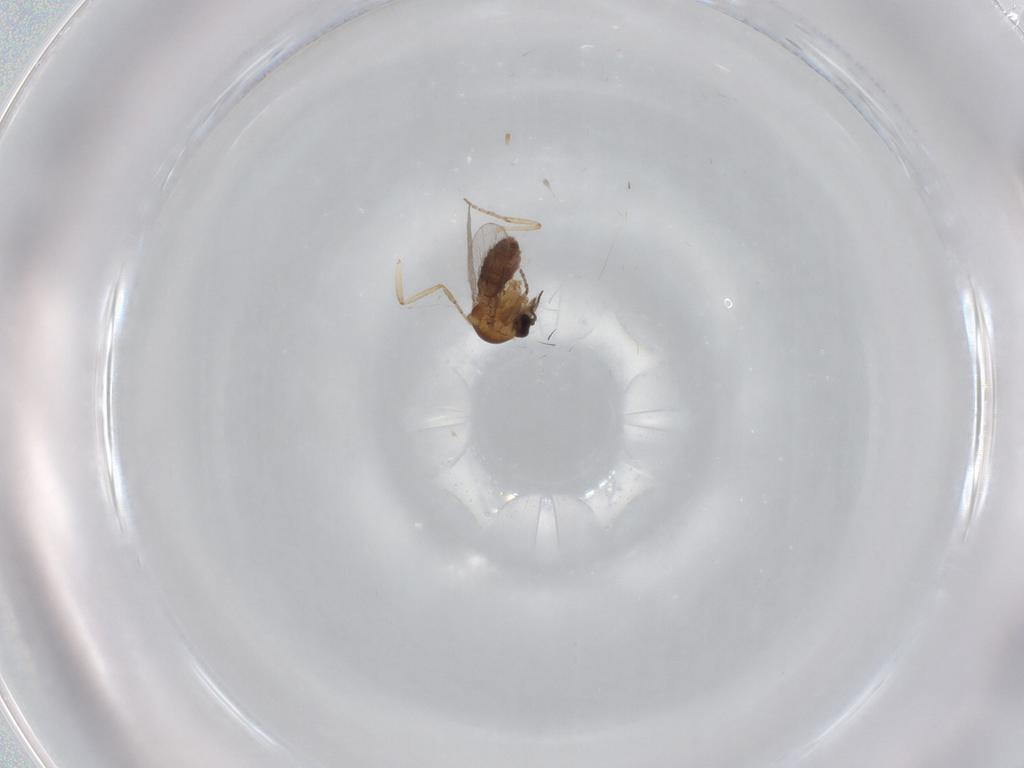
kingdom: Animalia
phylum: Arthropoda
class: Insecta
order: Diptera
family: Ceratopogonidae
